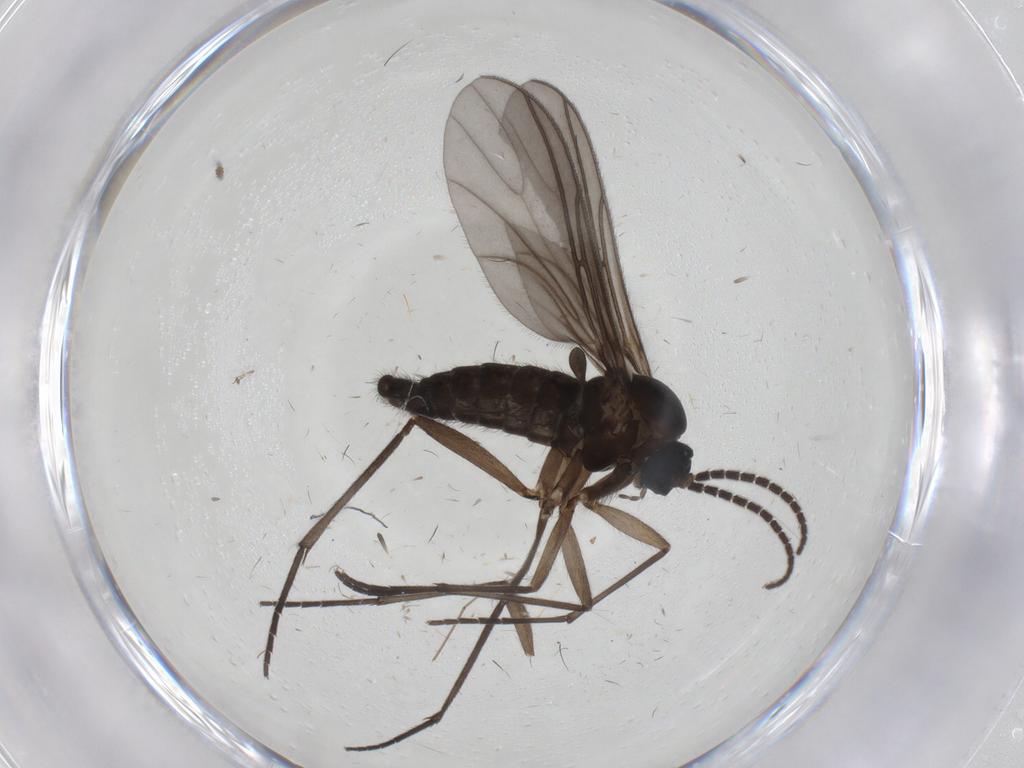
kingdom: Animalia
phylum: Arthropoda
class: Insecta
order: Diptera
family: Sciaridae
